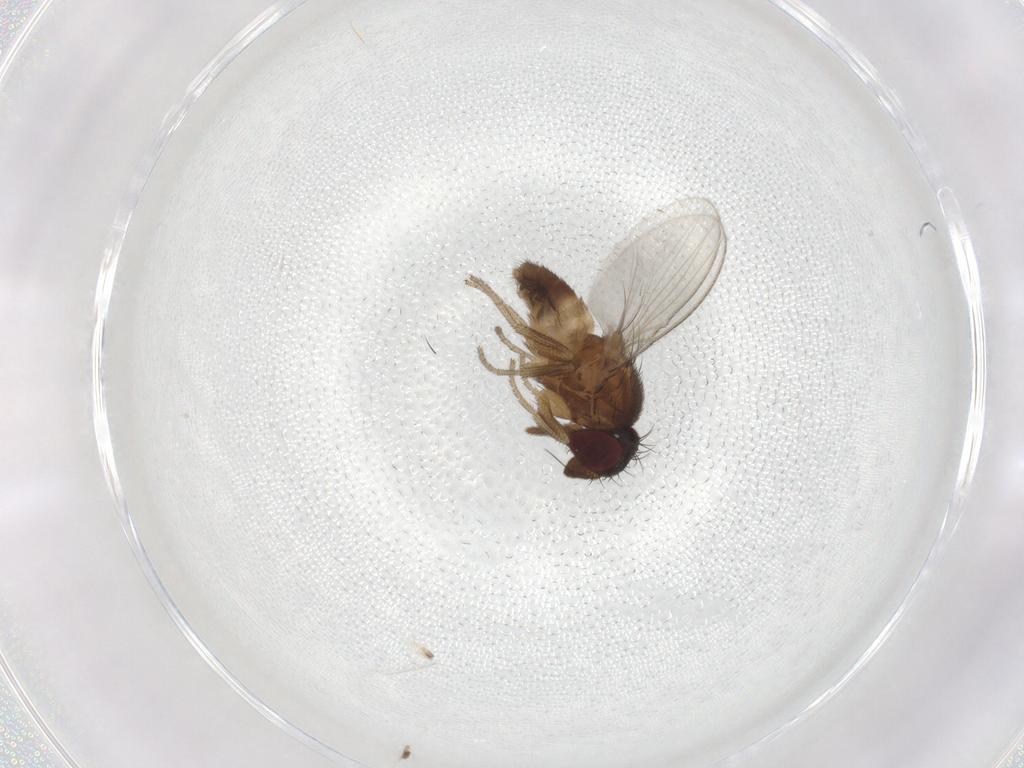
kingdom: Animalia
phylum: Arthropoda
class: Insecta
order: Diptera
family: Milichiidae
